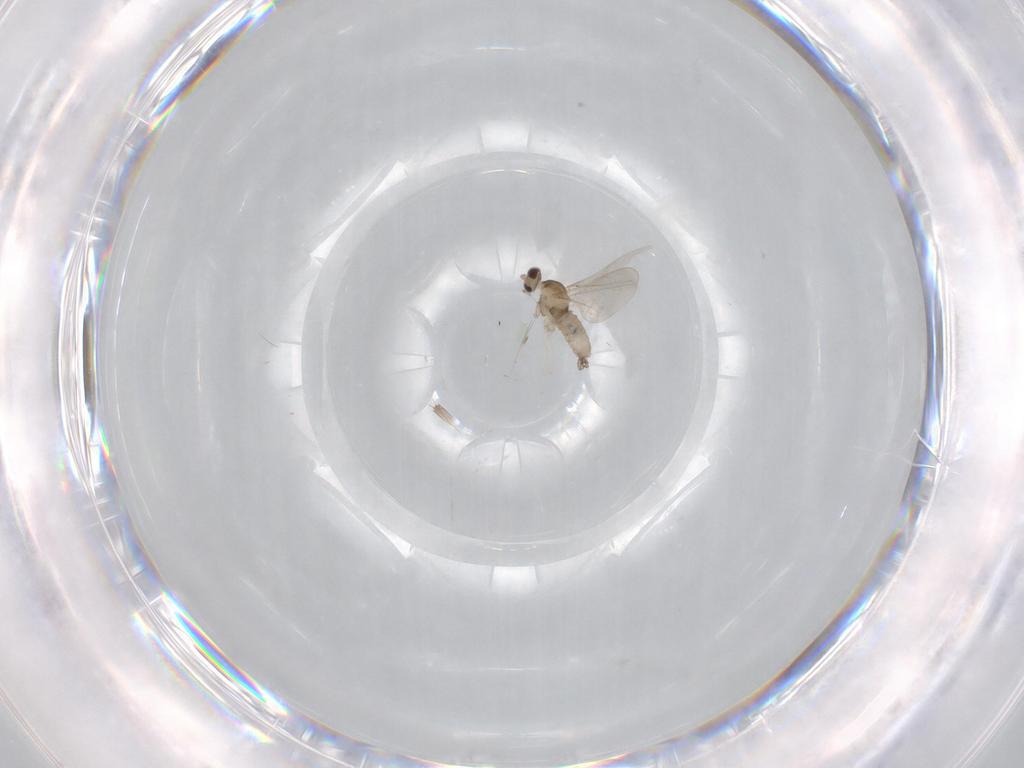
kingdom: Animalia
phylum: Arthropoda
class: Insecta
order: Diptera
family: Cecidomyiidae
